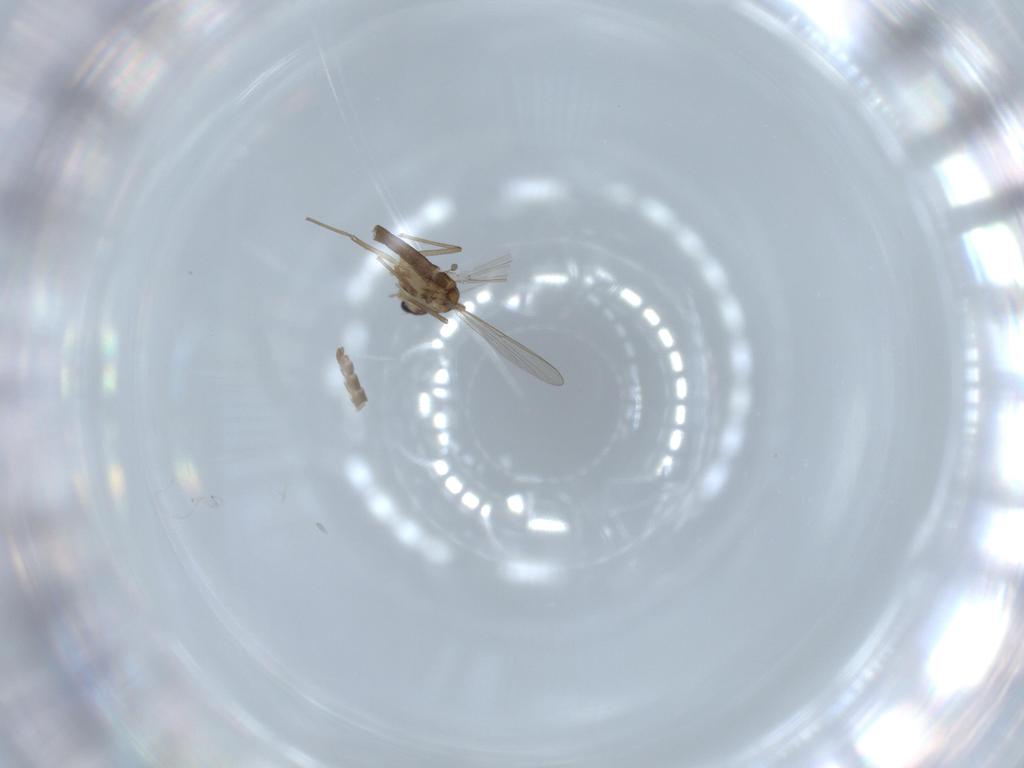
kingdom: Animalia
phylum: Arthropoda
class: Insecta
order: Diptera
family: Chironomidae
